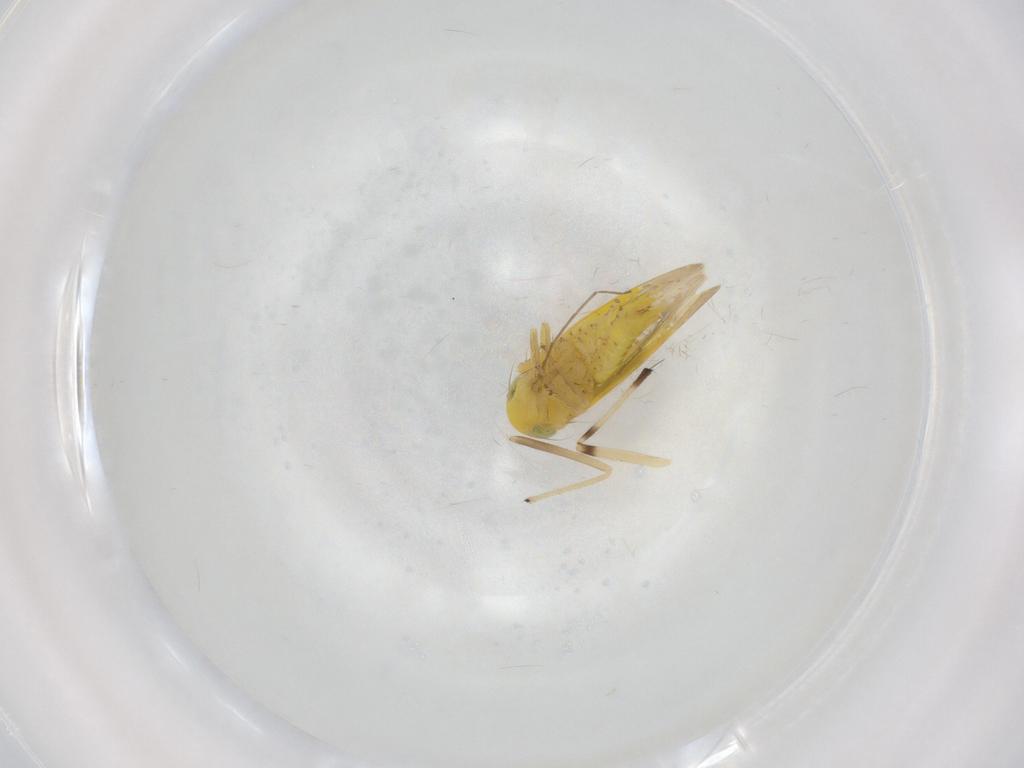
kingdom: Animalia
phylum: Arthropoda
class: Insecta
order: Hemiptera
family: Cicadellidae
